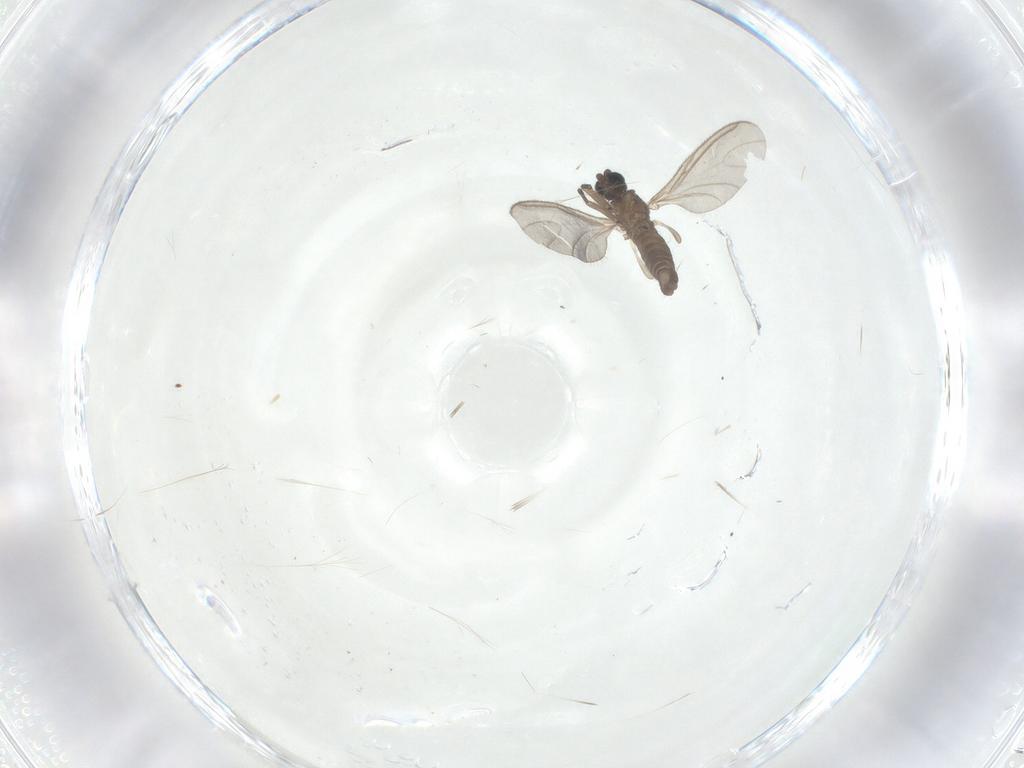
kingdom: Animalia
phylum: Arthropoda
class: Insecta
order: Diptera
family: Sciaridae
